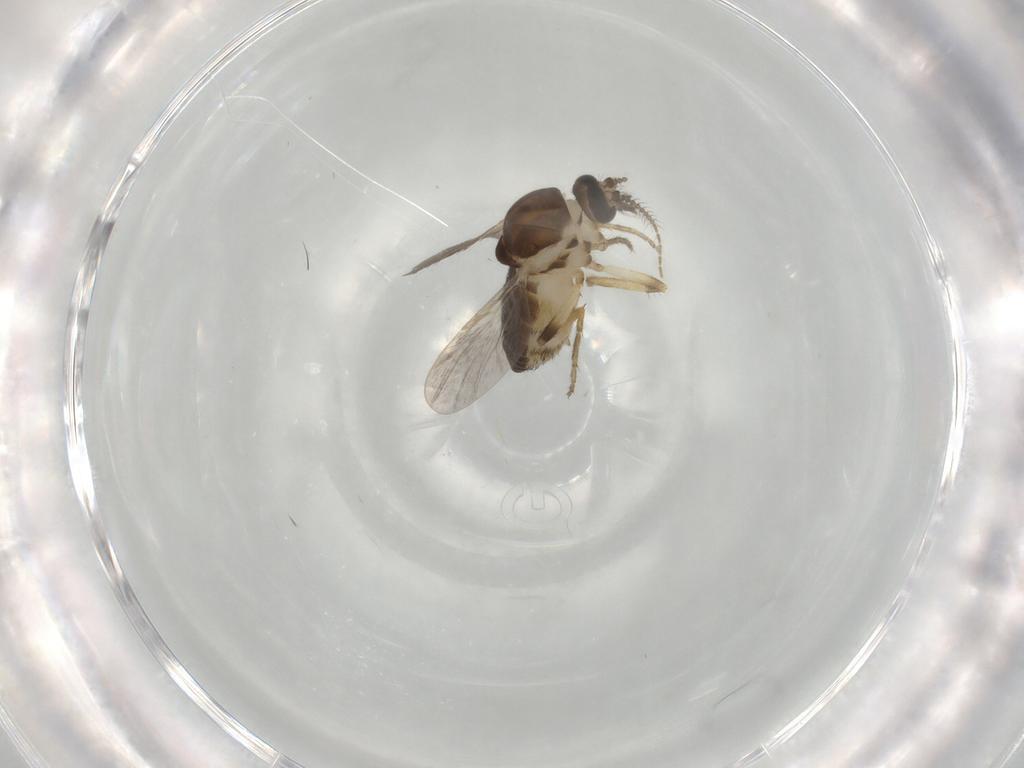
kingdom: Animalia
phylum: Arthropoda
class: Insecta
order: Diptera
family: Ceratopogonidae
